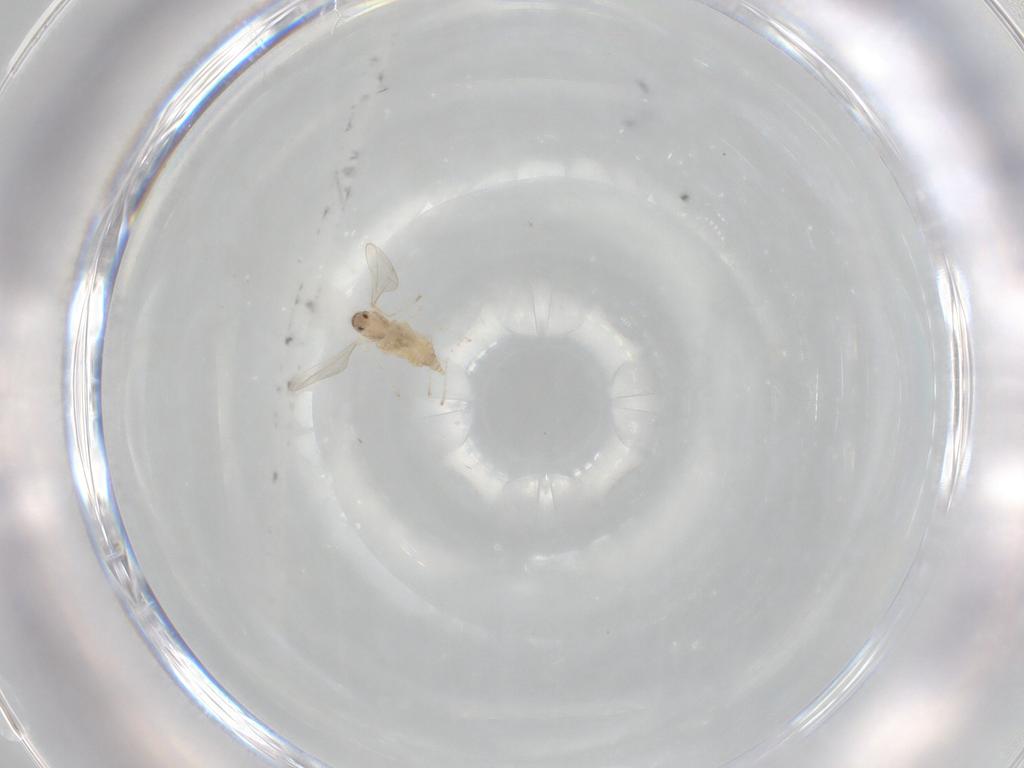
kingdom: Animalia
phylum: Arthropoda
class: Insecta
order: Diptera
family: Cecidomyiidae
